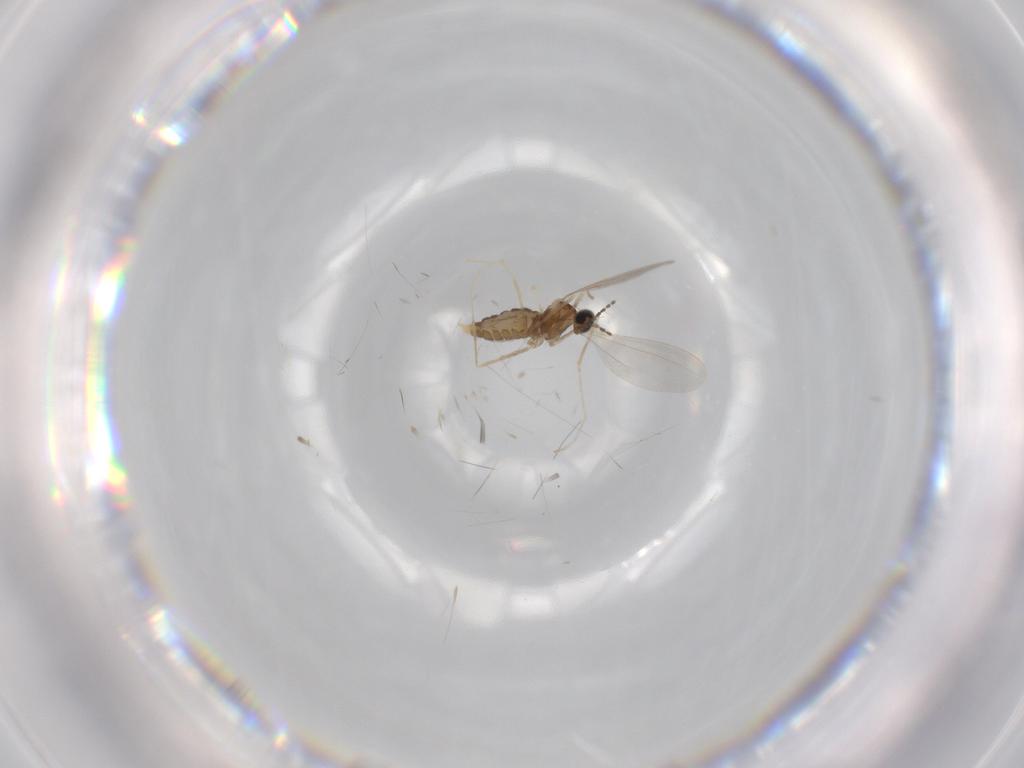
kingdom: Animalia
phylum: Arthropoda
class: Insecta
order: Diptera
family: Cecidomyiidae
